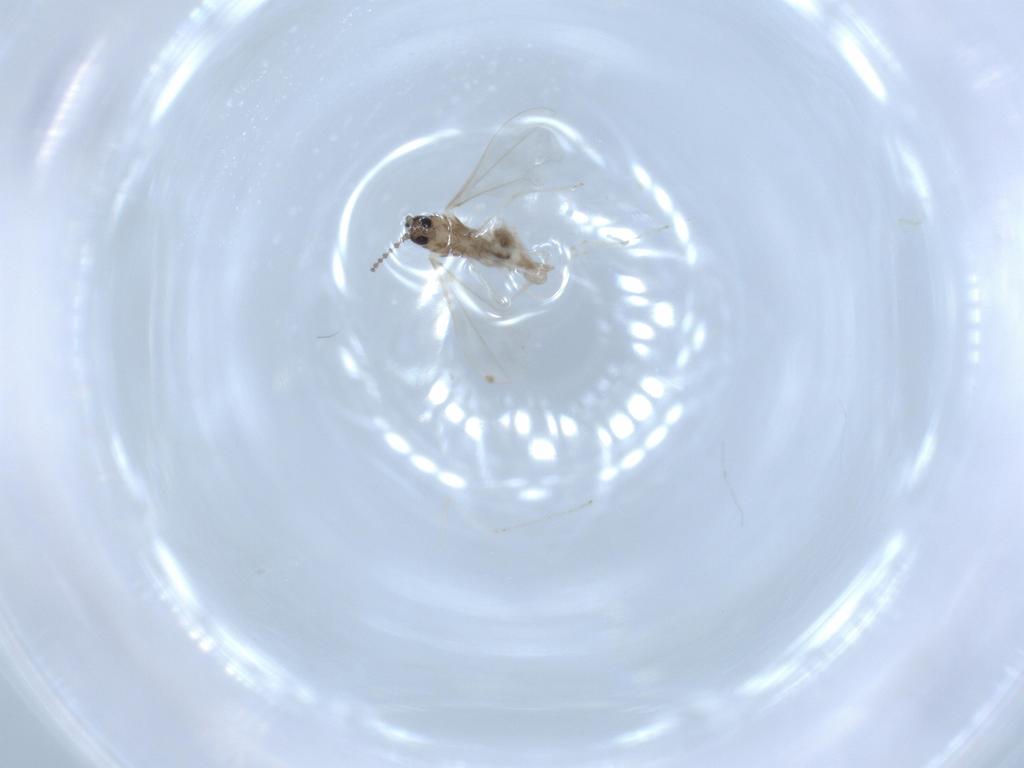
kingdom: Animalia
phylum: Arthropoda
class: Insecta
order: Diptera
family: Cecidomyiidae
